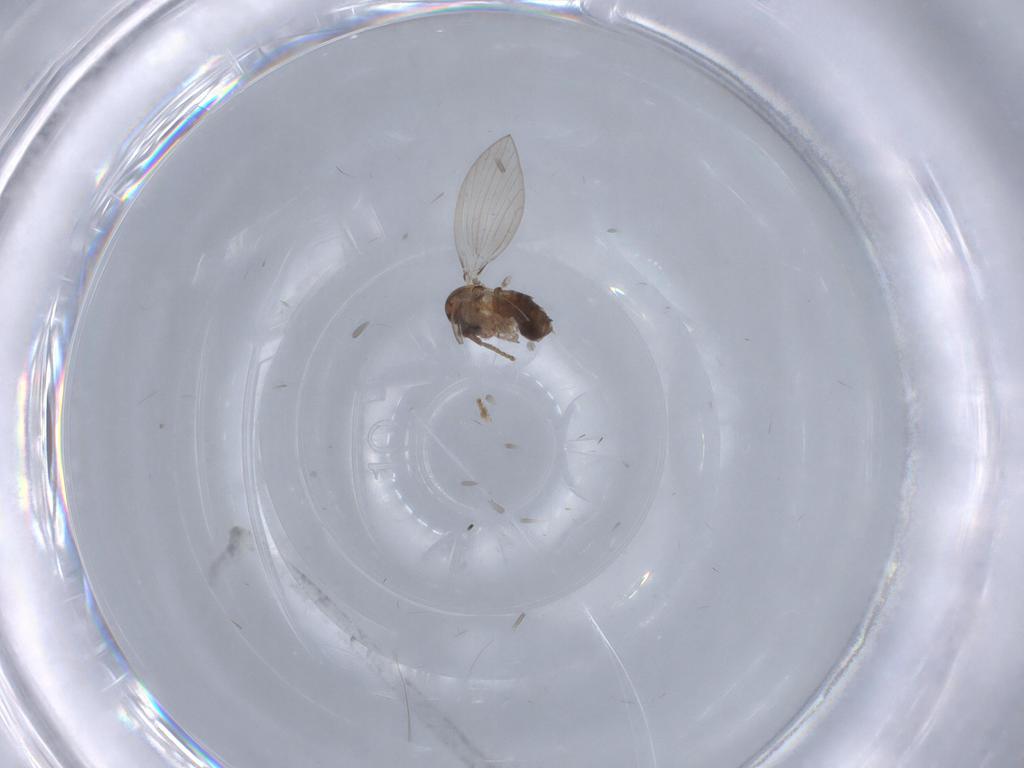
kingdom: Animalia
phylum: Arthropoda
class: Insecta
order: Diptera
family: Psychodidae
